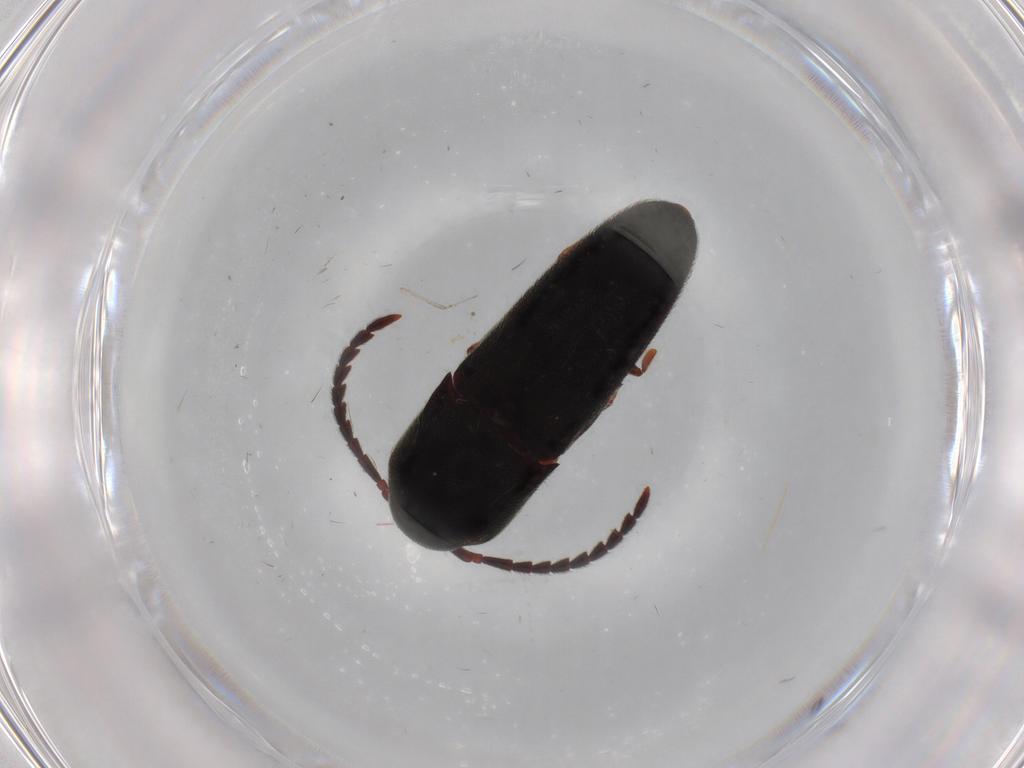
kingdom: Animalia
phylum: Arthropoda
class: Insecta
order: Coleoptera
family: Eucnemidae
